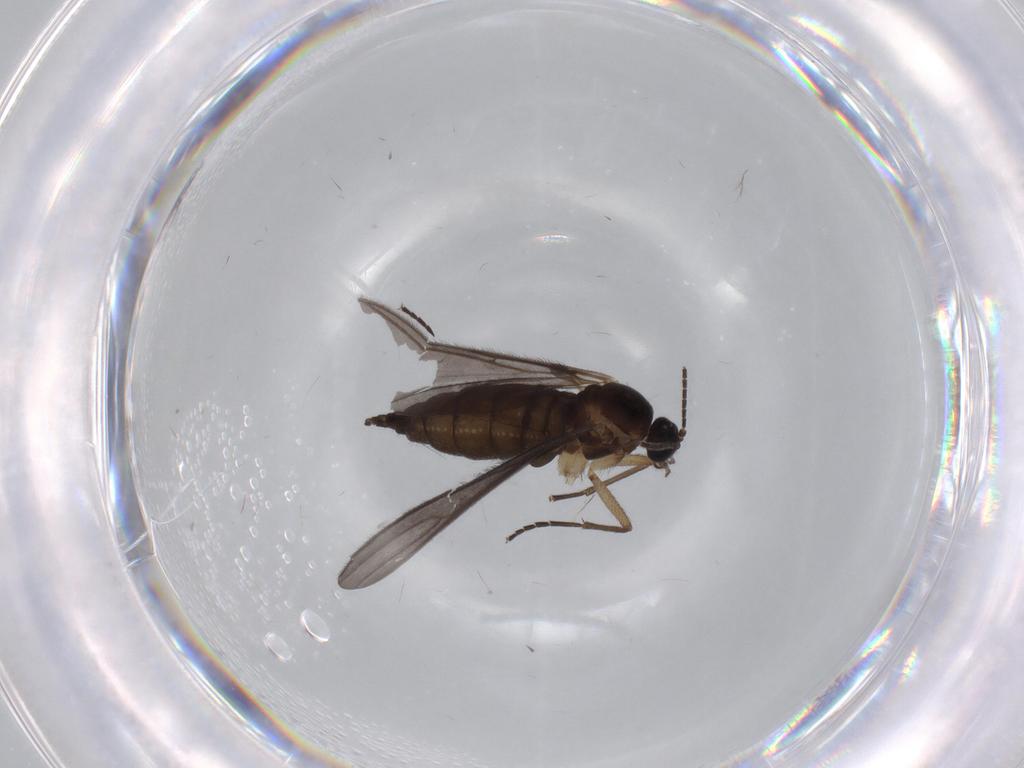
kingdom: Animalia
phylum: Arthropoda
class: Insecta
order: Diptera
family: Sciaridae
